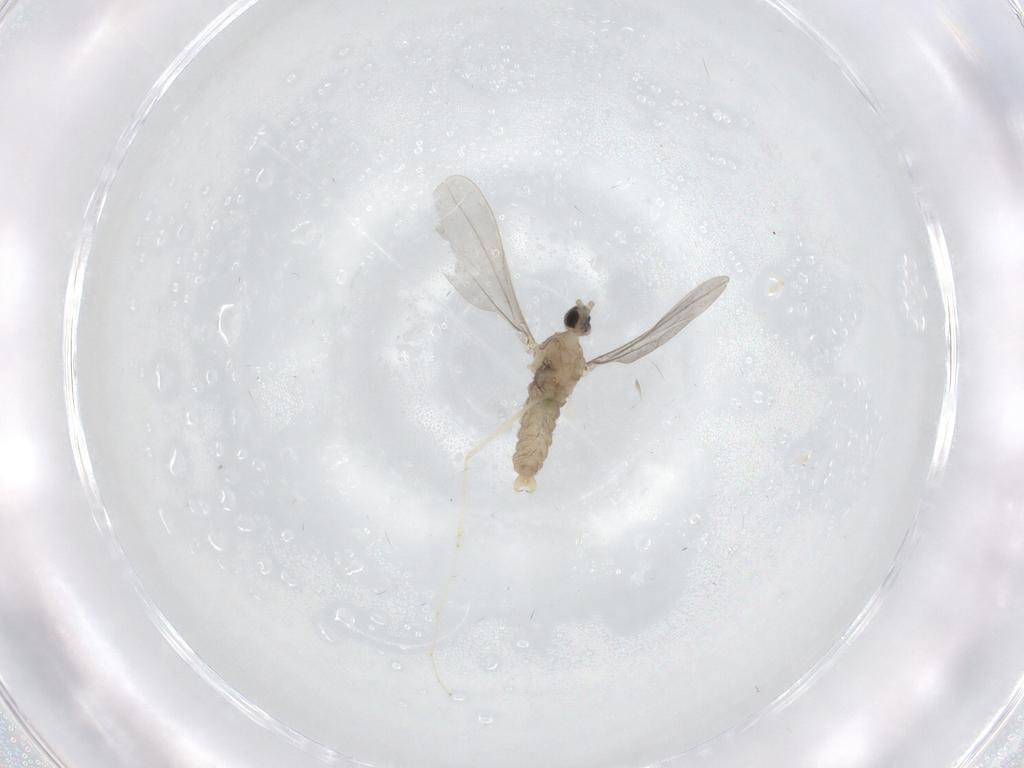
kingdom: Animalia
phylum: Arthropoda
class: Insecta
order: Diptera
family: Cecidomyiidae
